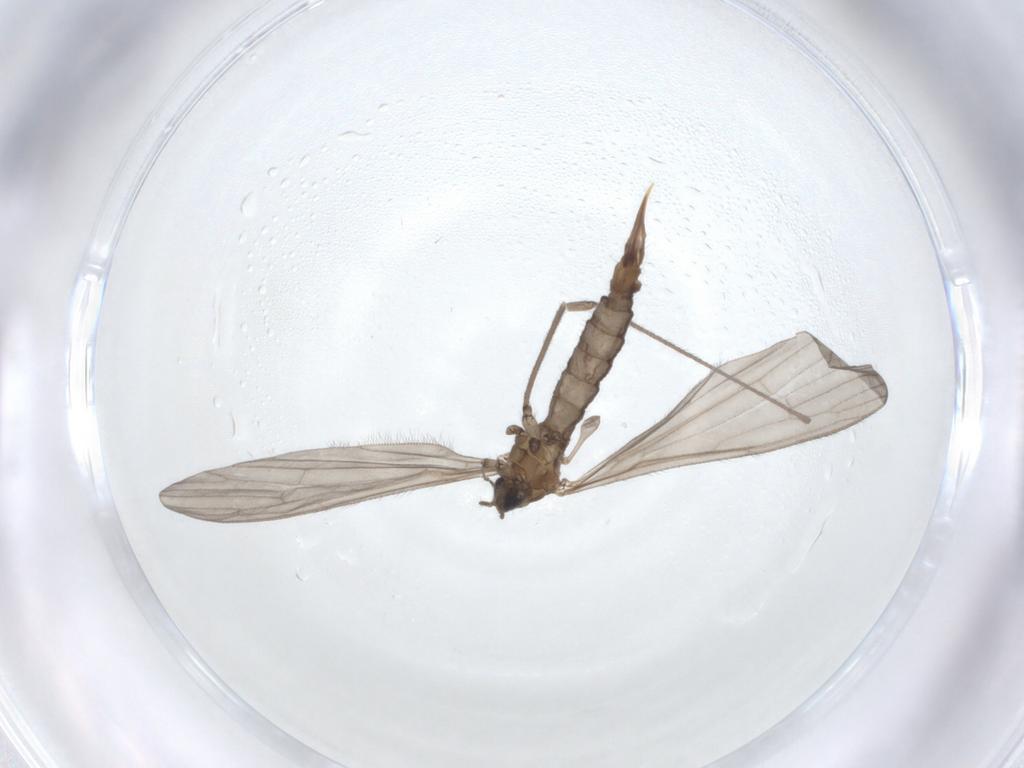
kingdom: Animalia
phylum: Arthropoda
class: Insecta
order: Diptera
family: Limoniidae
